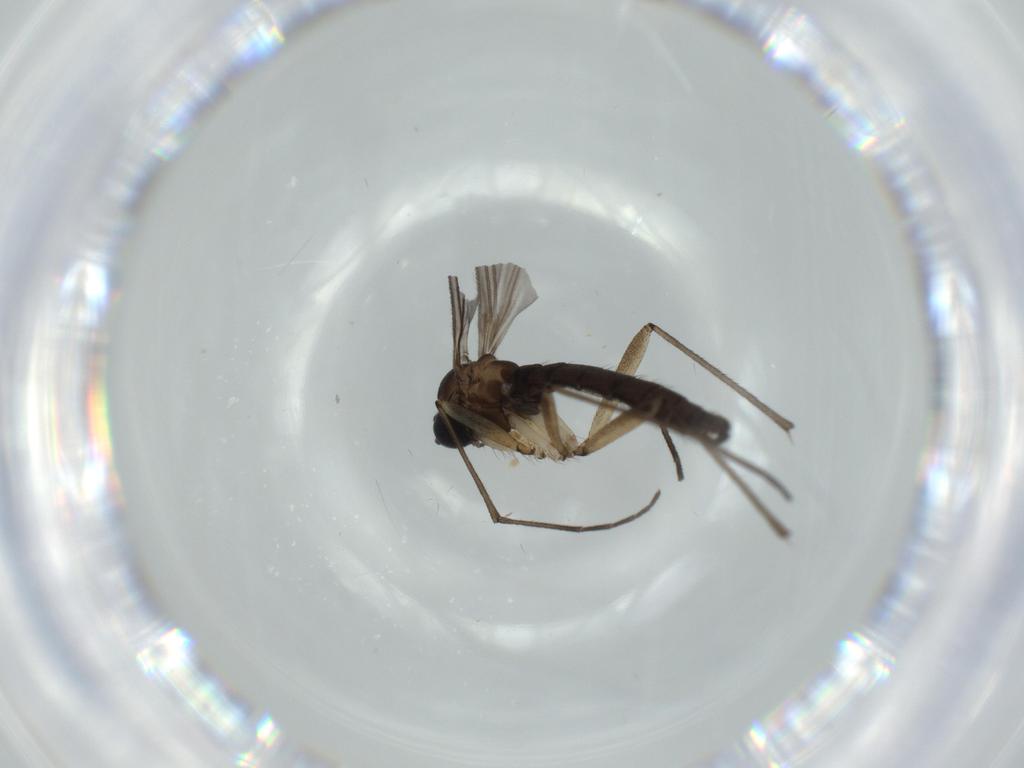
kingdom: Animalia
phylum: Arthropoda
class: Insecta
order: Diptera
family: Sciaridae
